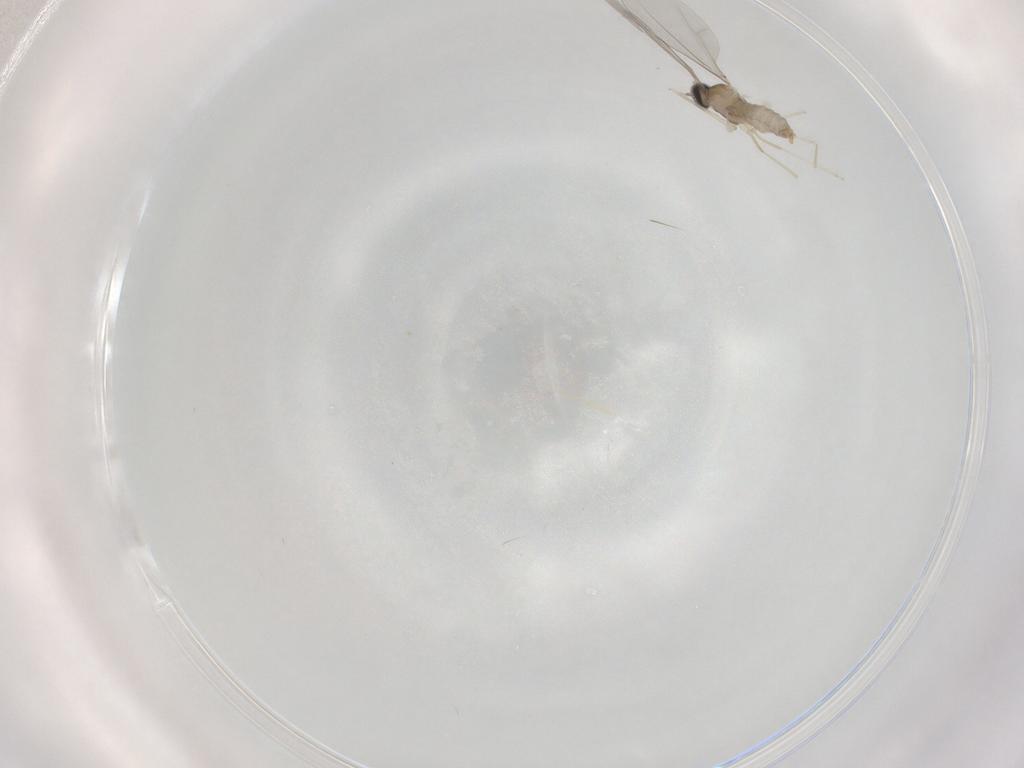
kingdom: Animalia
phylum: Arthropoda
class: Insecta
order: Diptera
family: Cecidomyiidae
